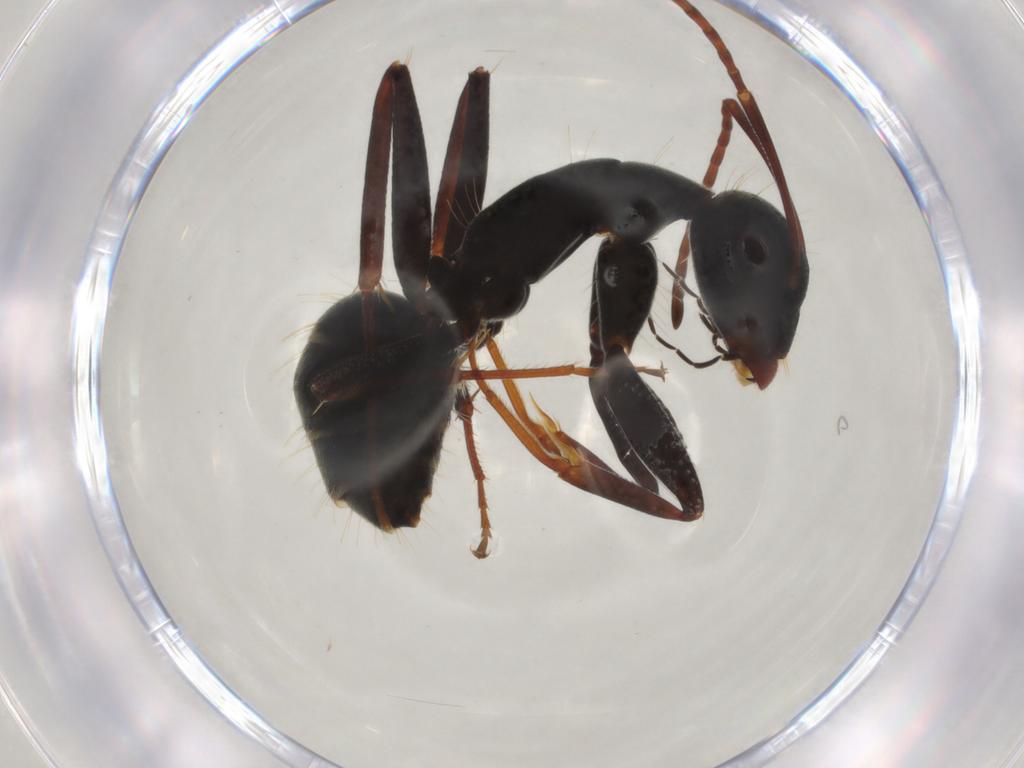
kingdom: Animalia
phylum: Arthropoda
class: Insecta
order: Hymenoptera
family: Formicidae
